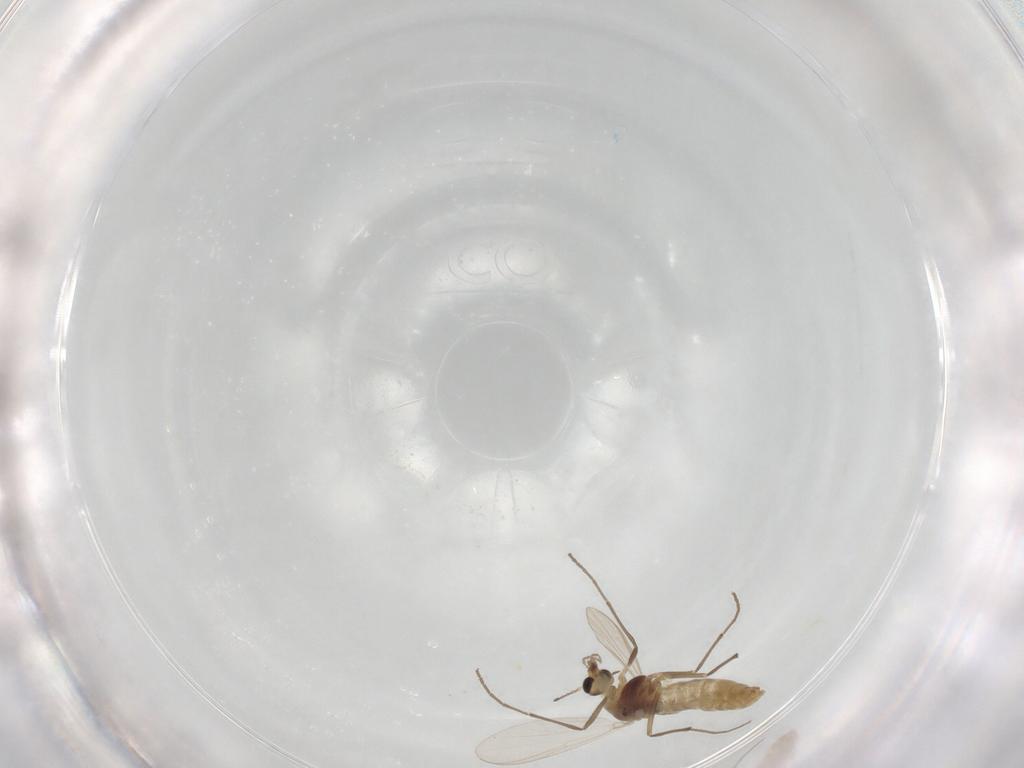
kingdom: Animalia
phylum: Arthropoda
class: Insecta
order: Diptera
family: Chironomidae
